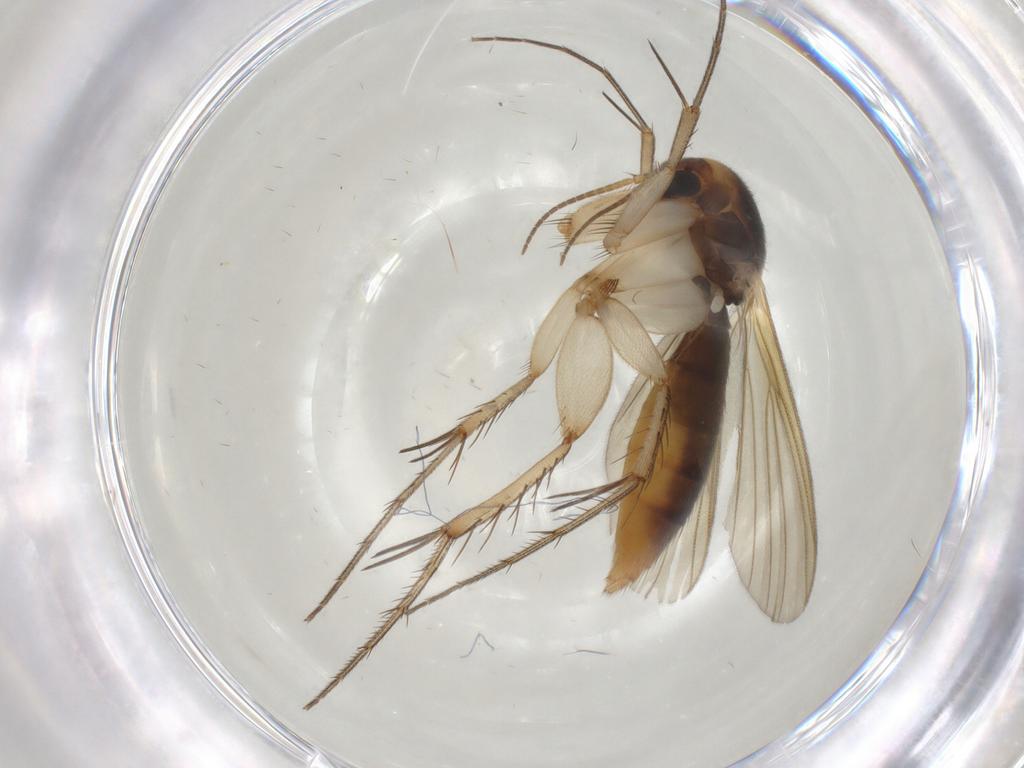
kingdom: Animalia
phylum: Arthropoda
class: Insecta
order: Diptera
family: Mycetophilidae
